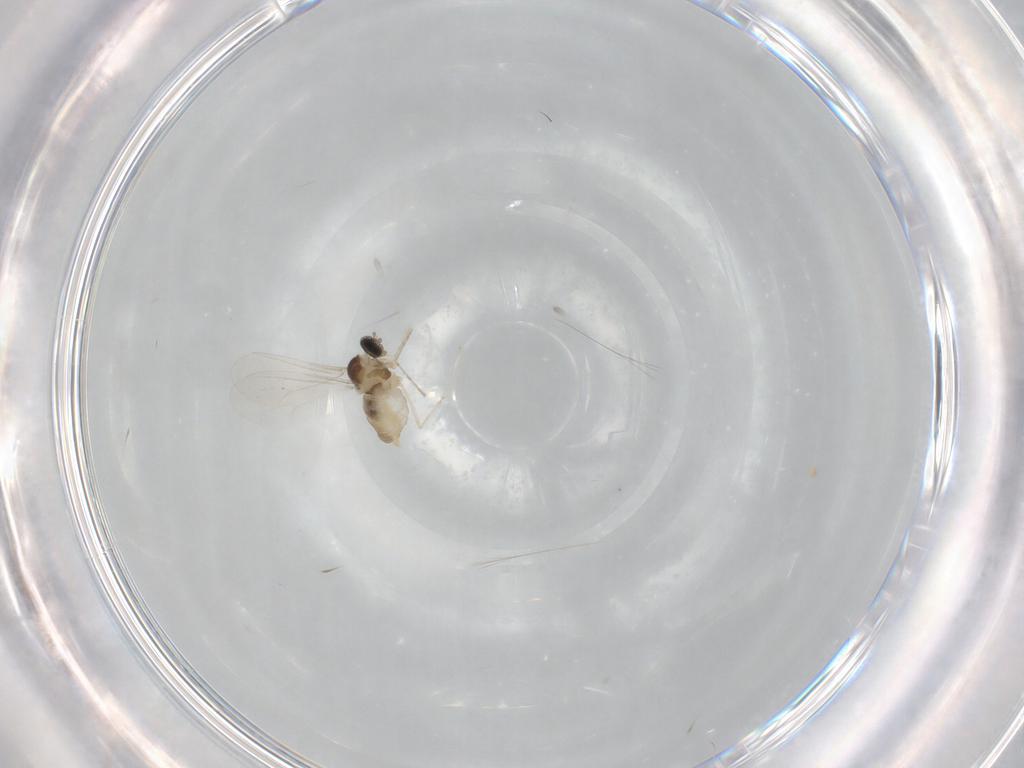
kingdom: Animalia
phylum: Arthropoda
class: Insecta
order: Diptera
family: Cecidomyiidae
